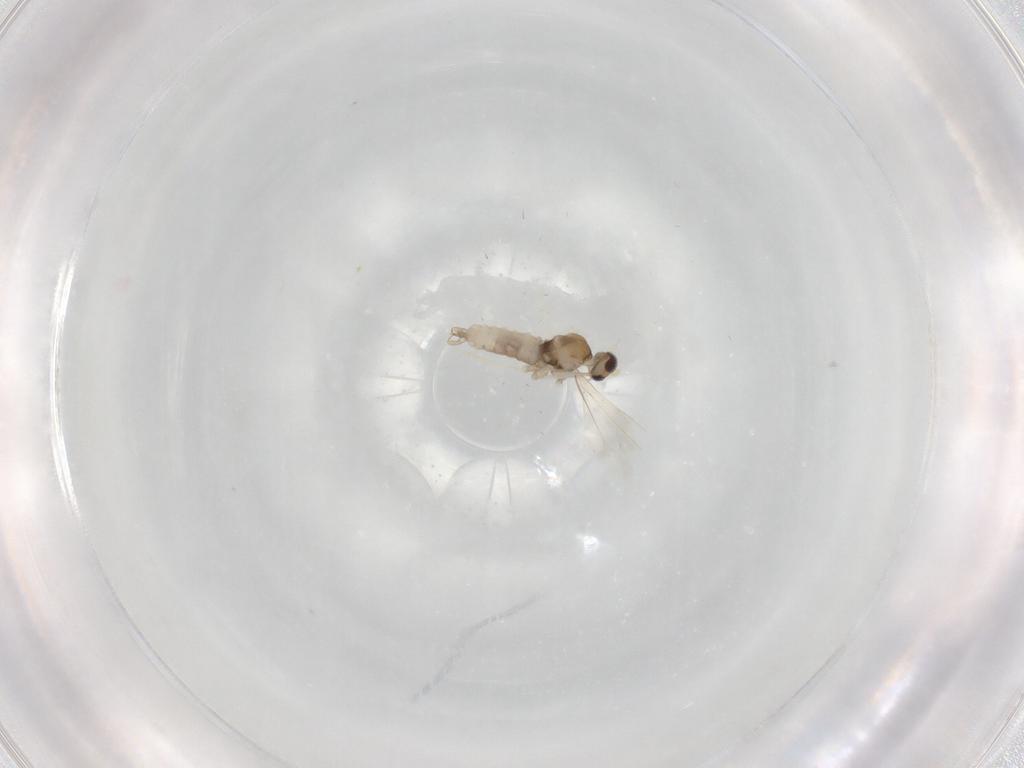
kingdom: Animalia
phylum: Arthropoda
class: Insecta
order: Diptera
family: Cecidomyiidae
